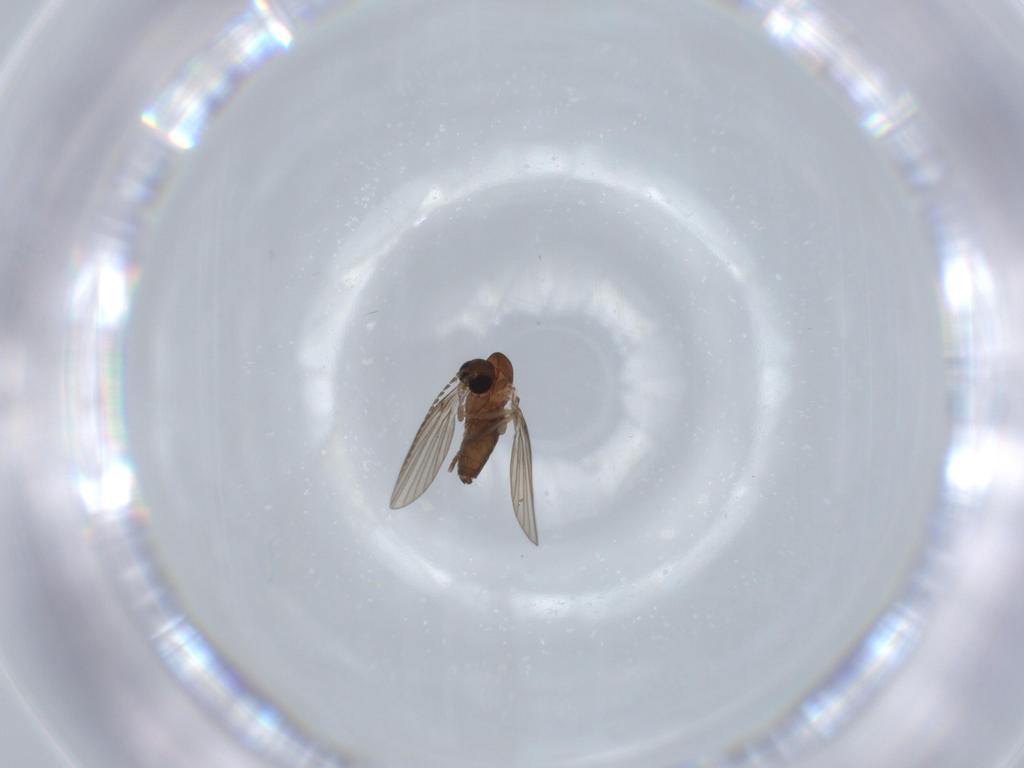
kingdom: Animalia
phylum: Arthropoda
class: Insecta
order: Diptera
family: Psychodidae
